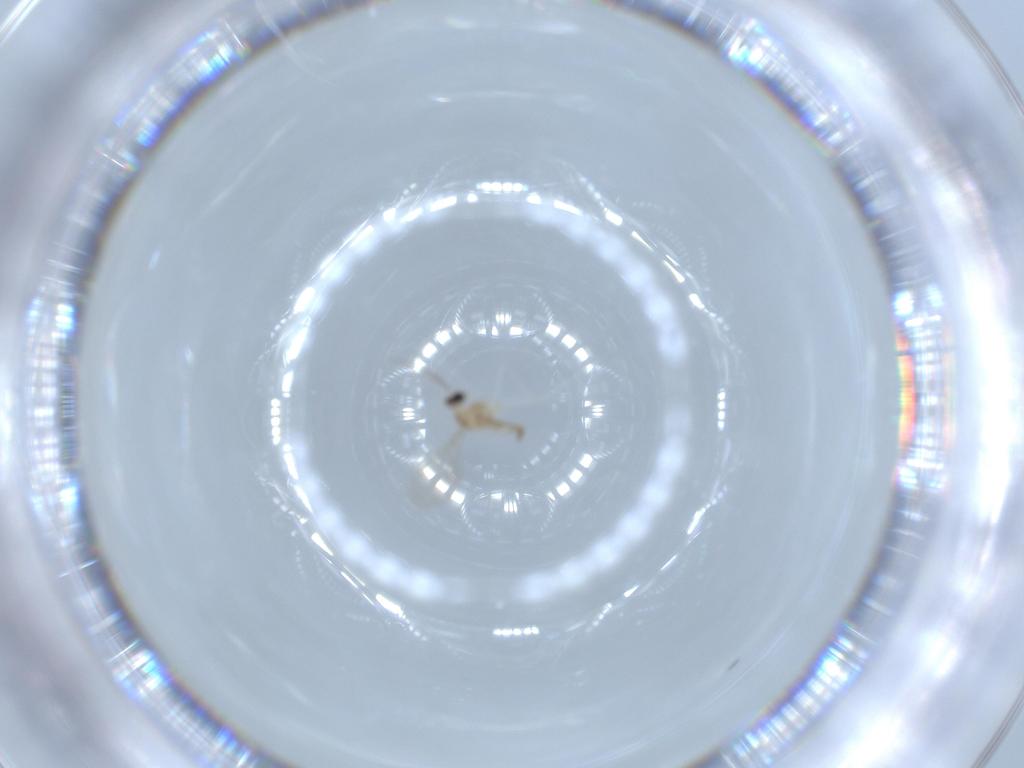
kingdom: Animalia
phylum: Arthropoda
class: Insecta
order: Diptera
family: Cecidomyiidae
